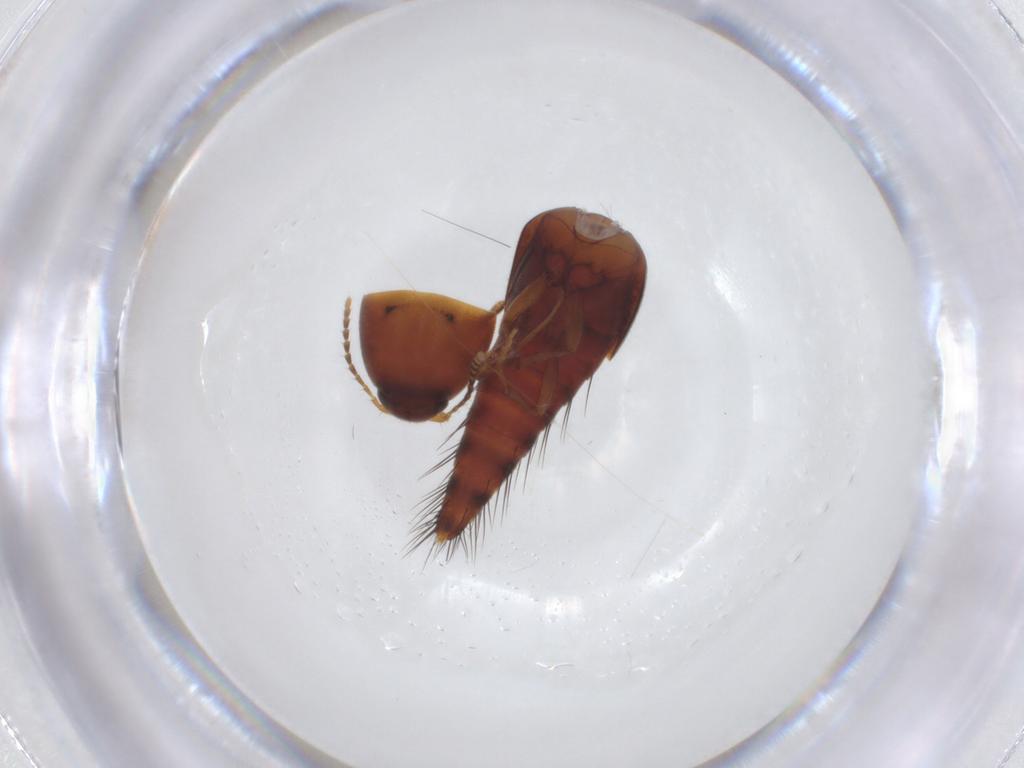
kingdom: Animalia
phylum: Arthropoda
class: Insecta
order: Coleoptera
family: Staphylinidae
